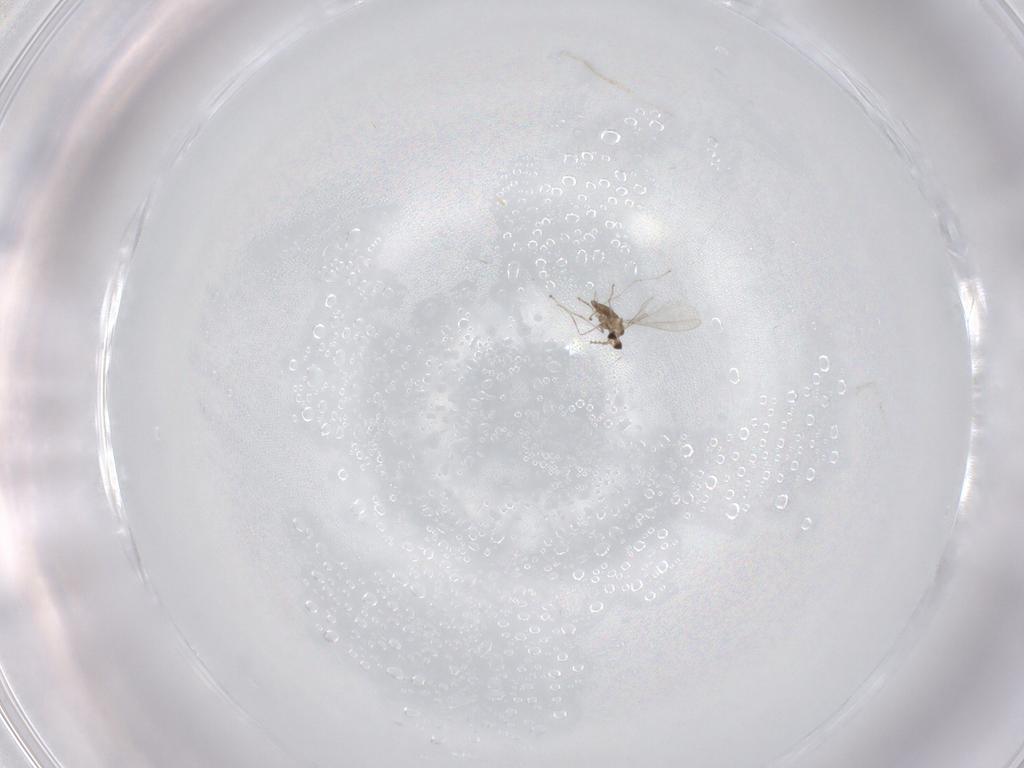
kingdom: Animalia
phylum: Arthropoda
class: Insecta
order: Diptera
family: Cecidomyiidae
